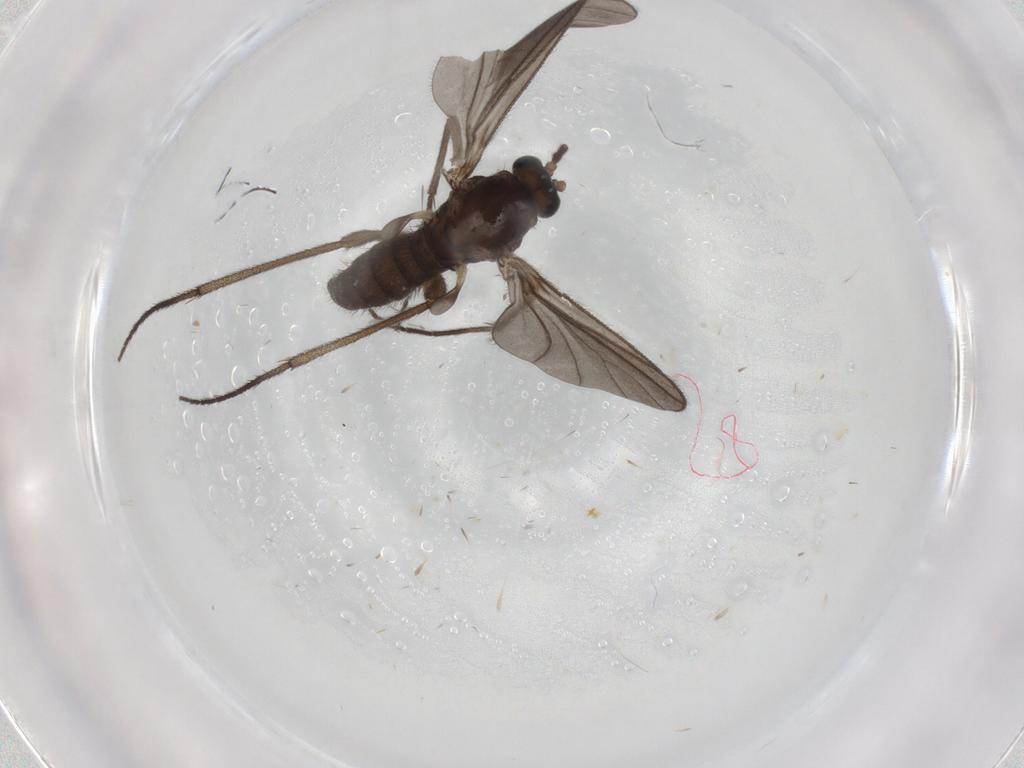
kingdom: Animalia
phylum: Arthropoda
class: Insecta
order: Diptera
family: Sciaridae
